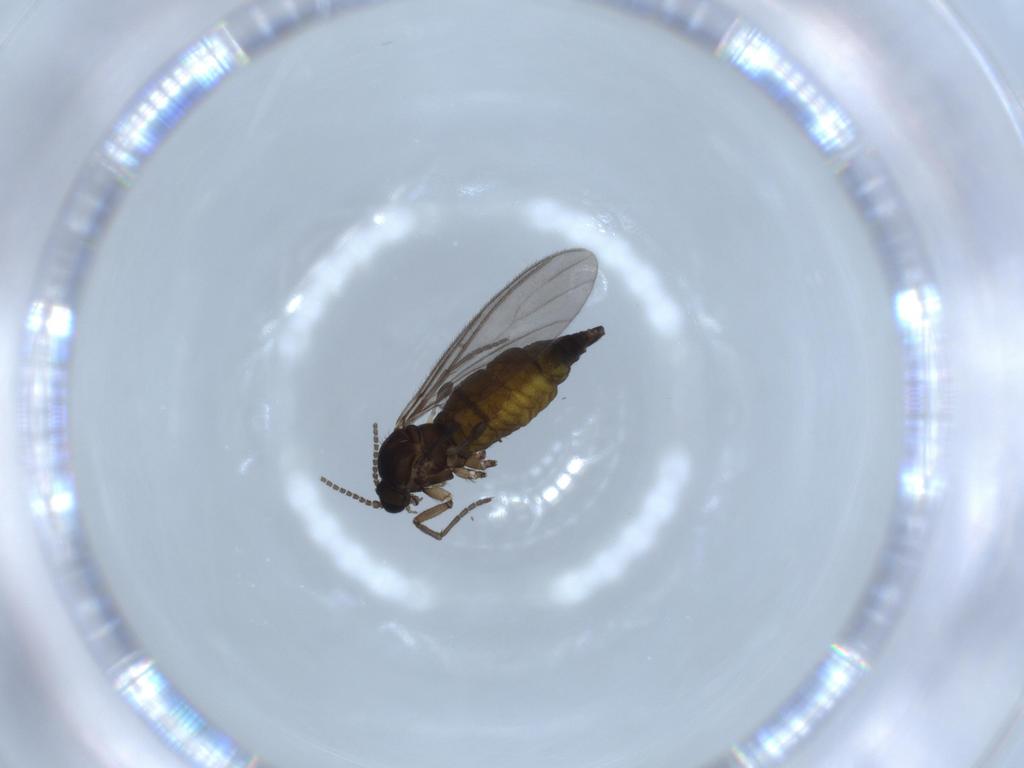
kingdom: Animalia
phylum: Arthropoda
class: Insecta
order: Diptera
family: Sciaridae
